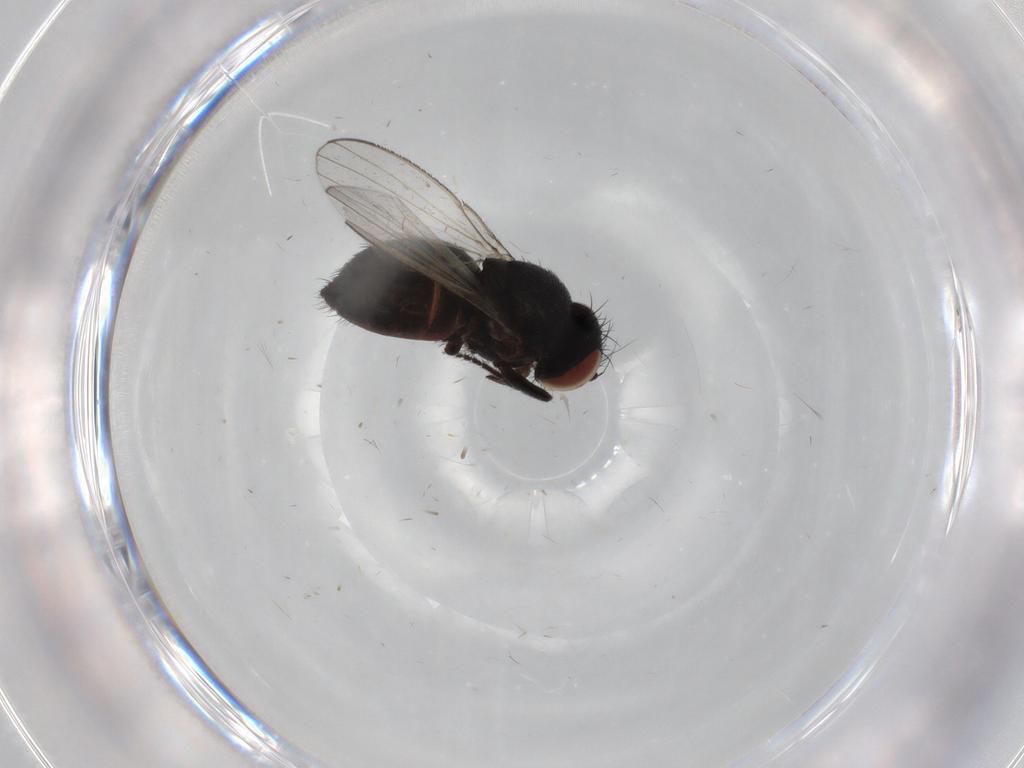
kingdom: Animalia
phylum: Arthropoda
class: Insecta
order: Diptera
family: Milichiidae
